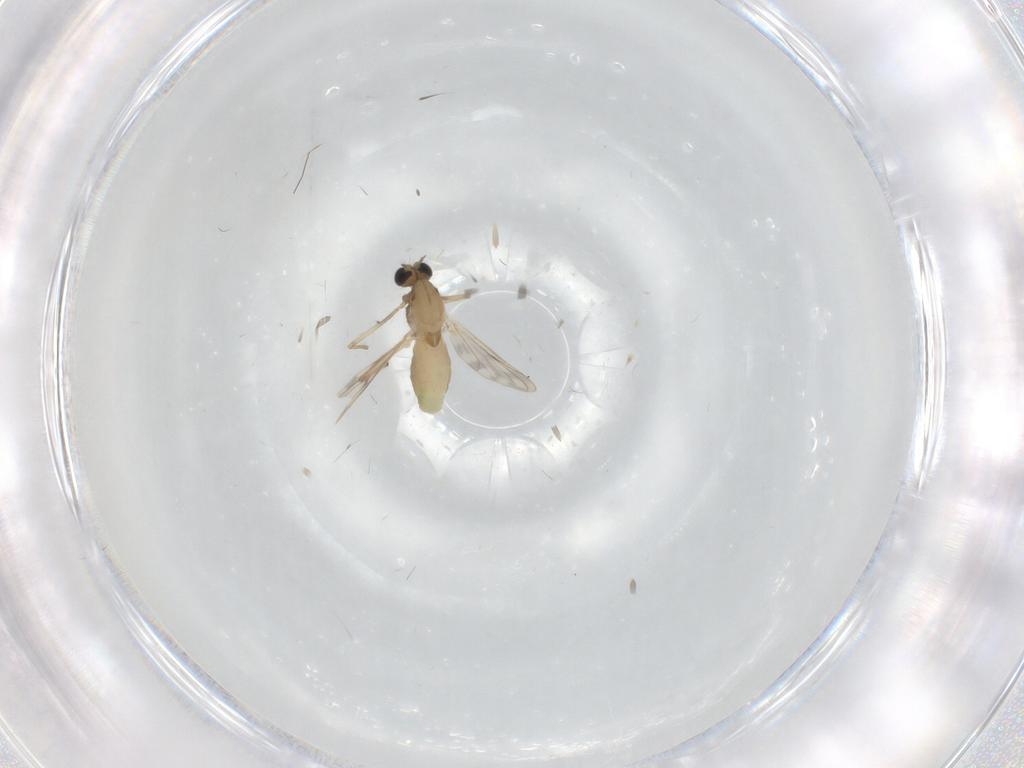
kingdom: Animalia
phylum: Arthropoda
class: Insecta
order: Diptera
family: Chironomidae
